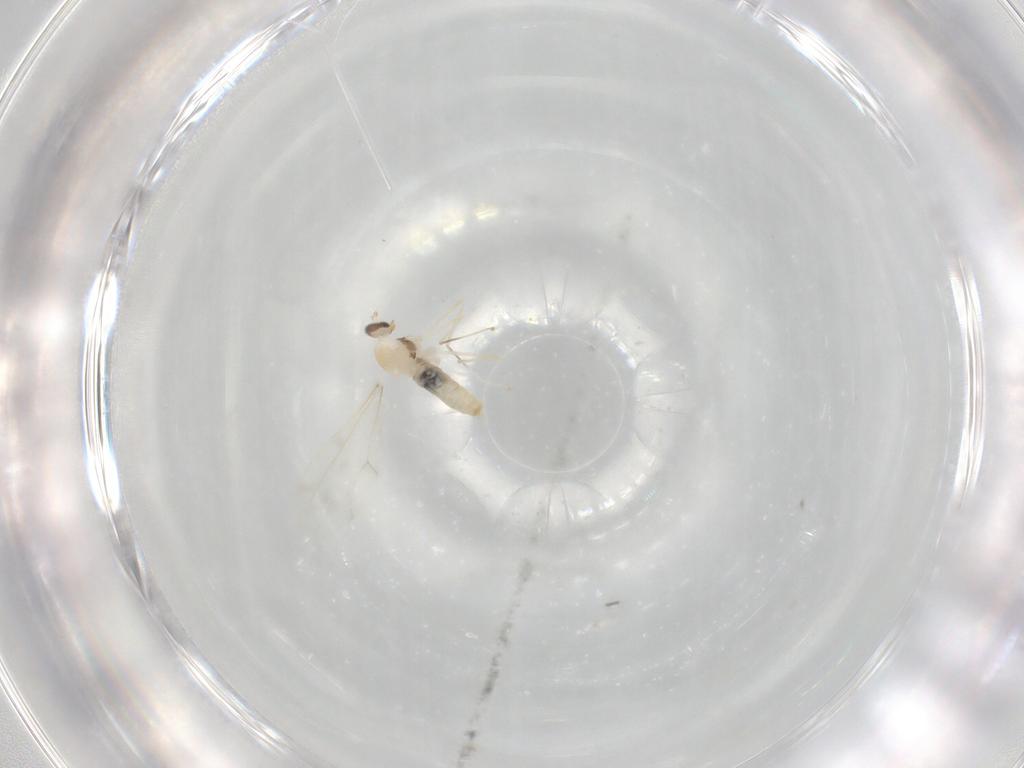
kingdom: Animalia
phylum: Arthropoda
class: Insecta
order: Diptera
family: Cecidomyiidae
